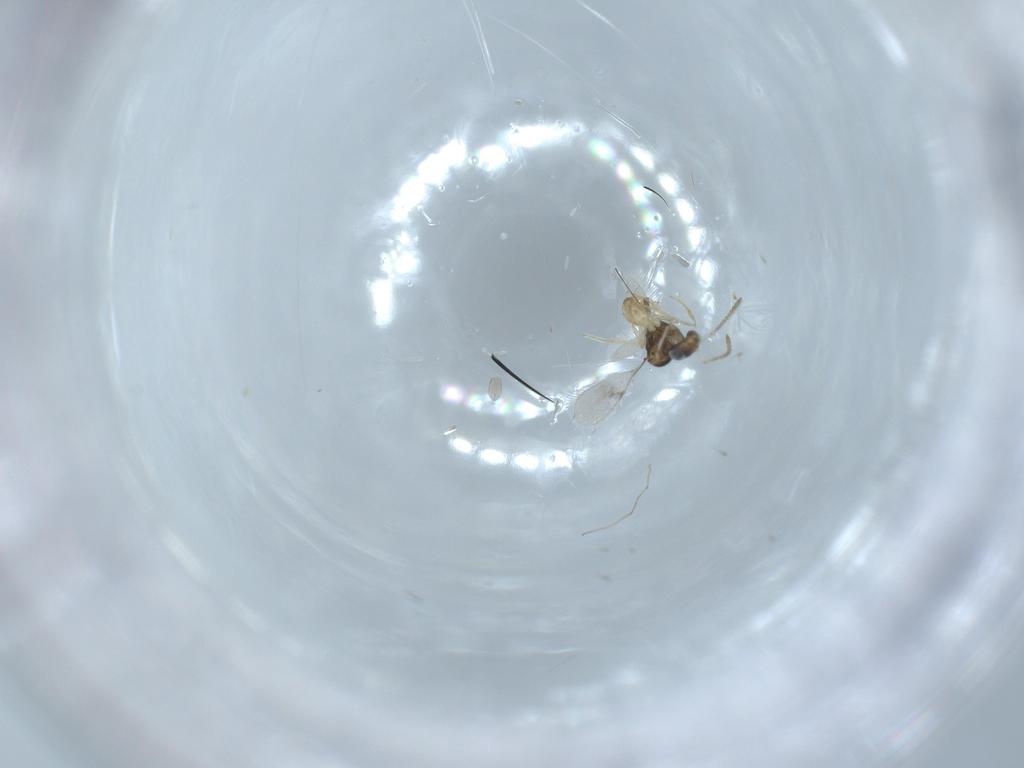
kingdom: Animalia
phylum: Arthropoda
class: Insecta
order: Hymenoptera
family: Scelionidae
